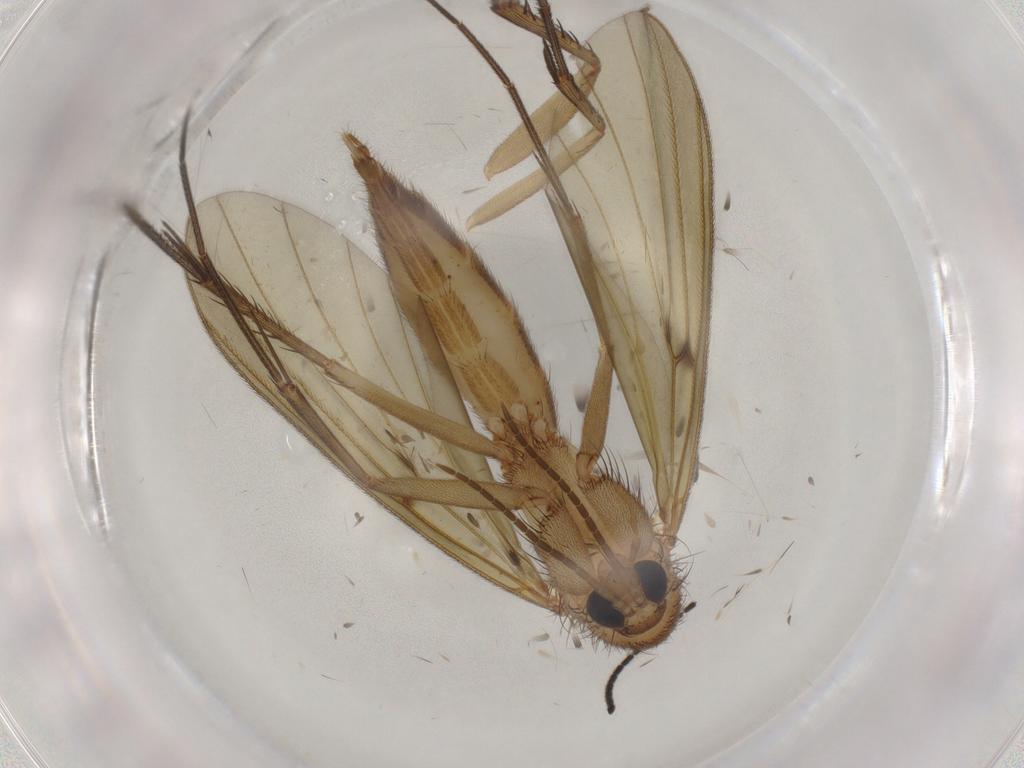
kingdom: Animalia
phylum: Arthropoda
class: Insecta
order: Diptera
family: Mycetophilidae
